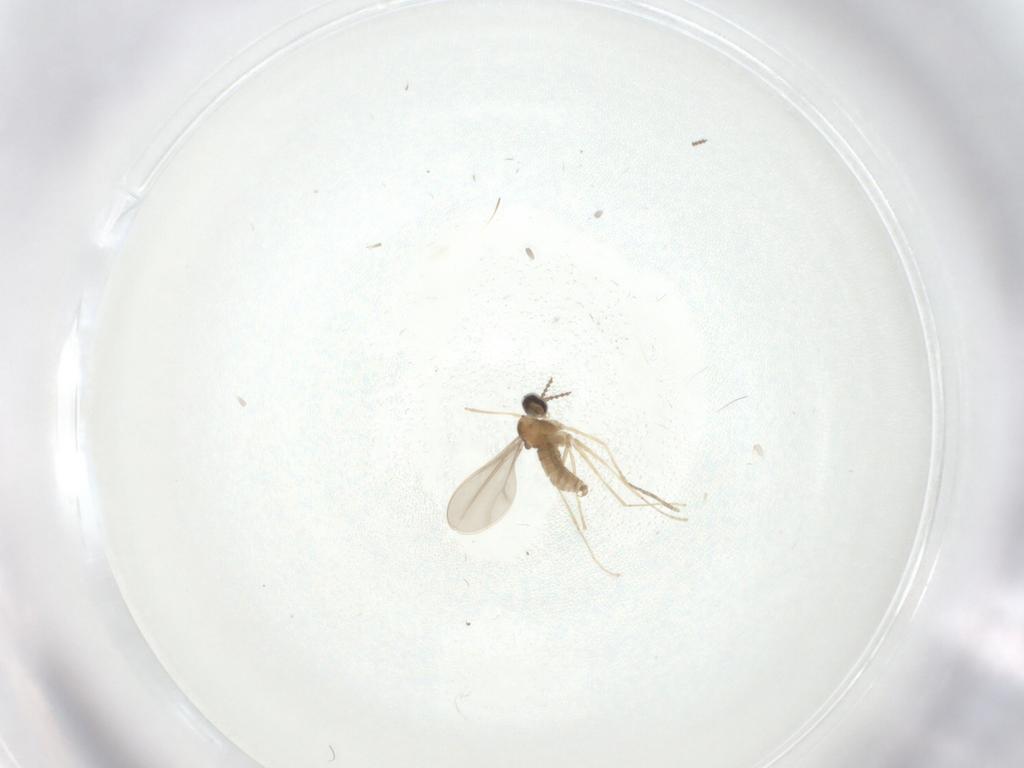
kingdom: Animalia
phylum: Arthropoda
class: Insecta
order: Diptera
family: Cecidomyiidae
